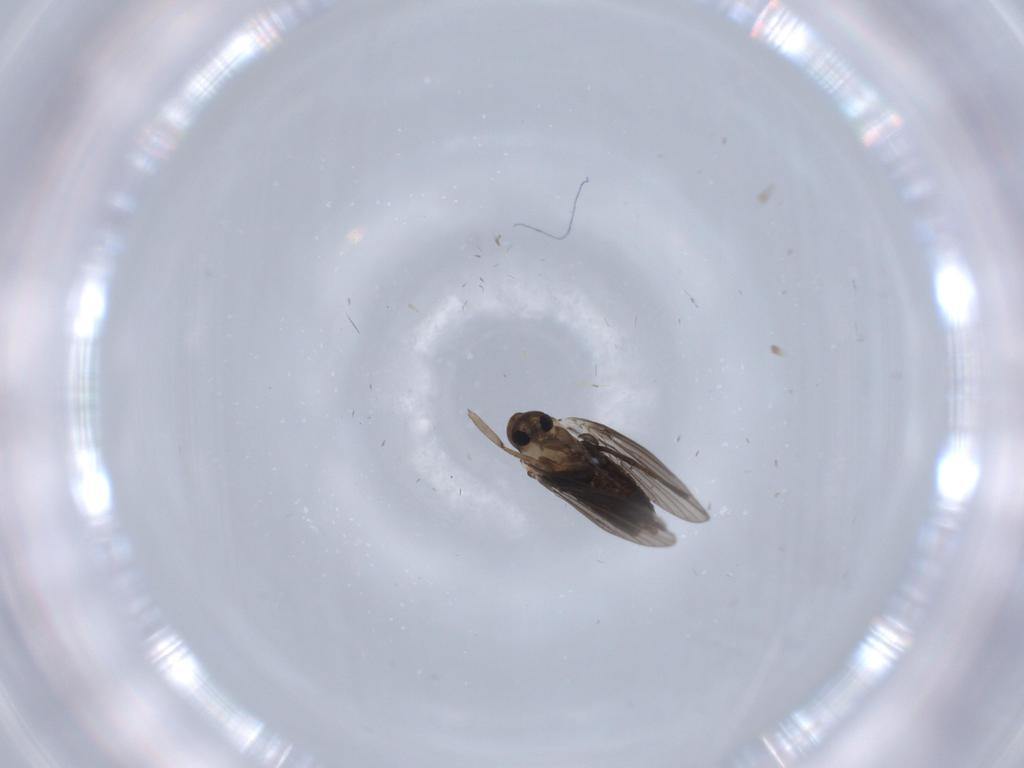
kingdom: Animalia
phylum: Arthropoda
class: Insecta
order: Diptera
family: Psychodidae
